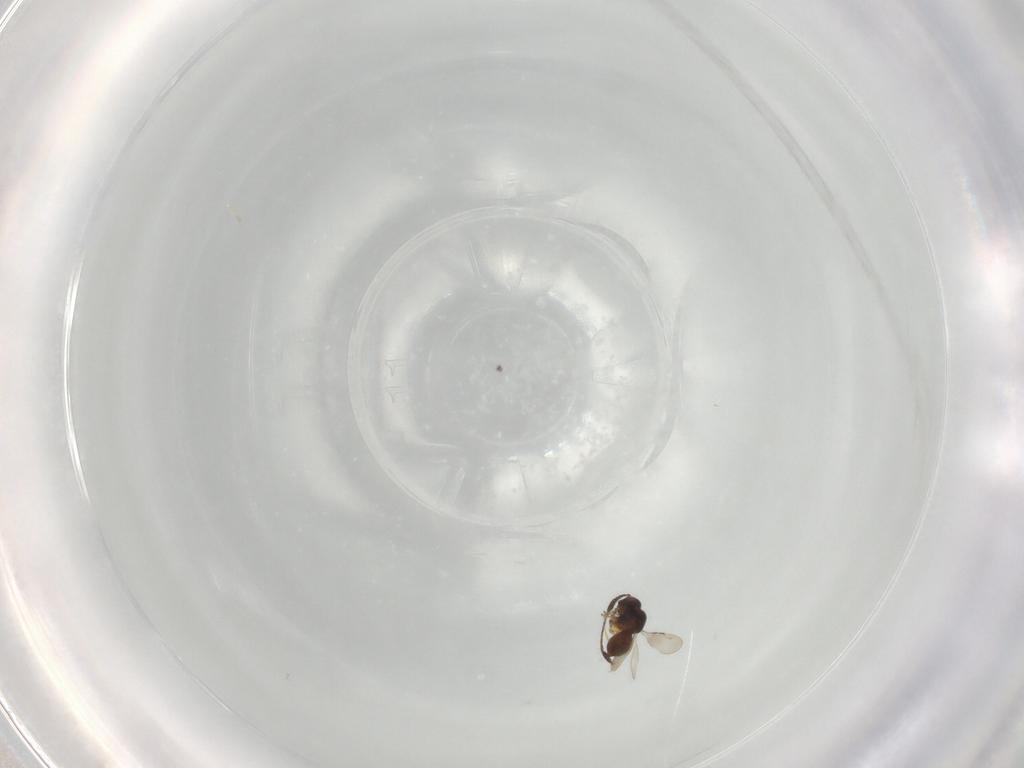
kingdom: Animalia
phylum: Arthropoda
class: Insecta
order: Hymenoptera
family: Ceraphronidae
